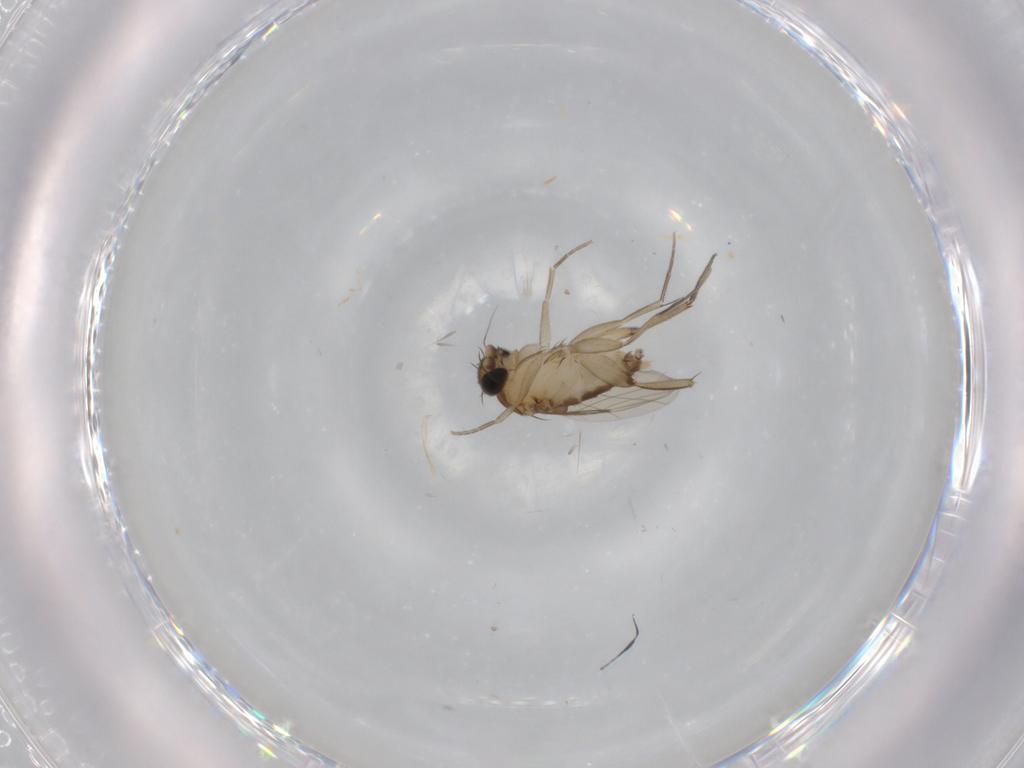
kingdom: Animalia
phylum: Arthropoda
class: Insecta
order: Diptera
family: Phoridae
